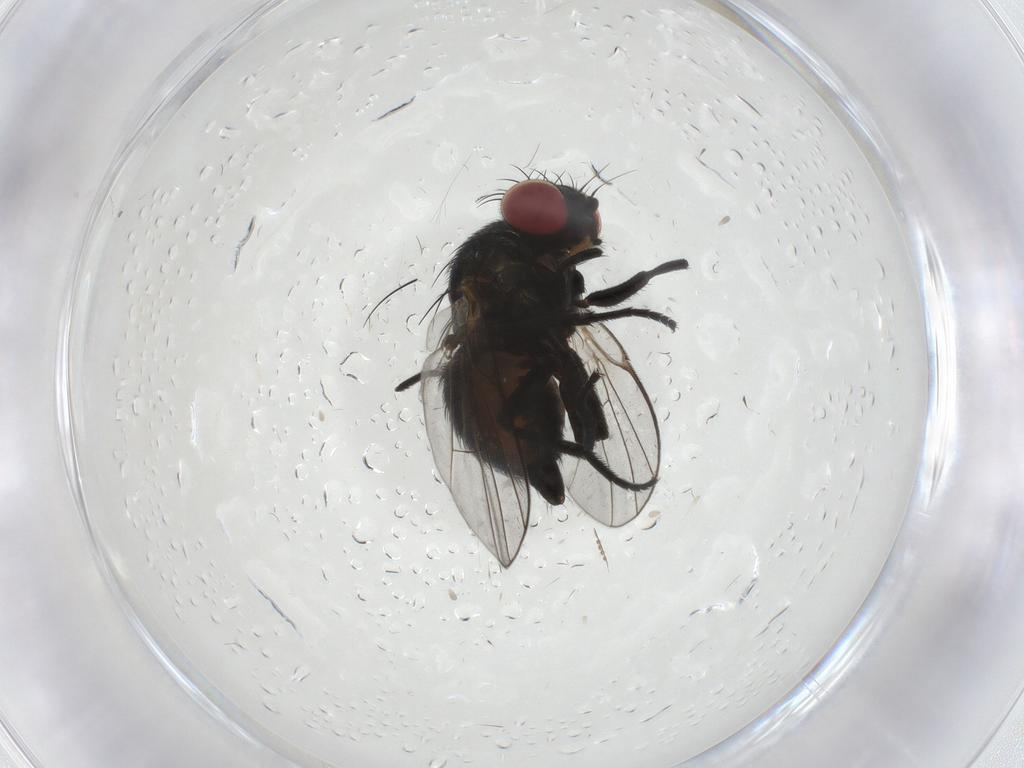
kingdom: Animalia
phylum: Arthropoda
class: Insecta
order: Diptera
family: Agromyzidae
